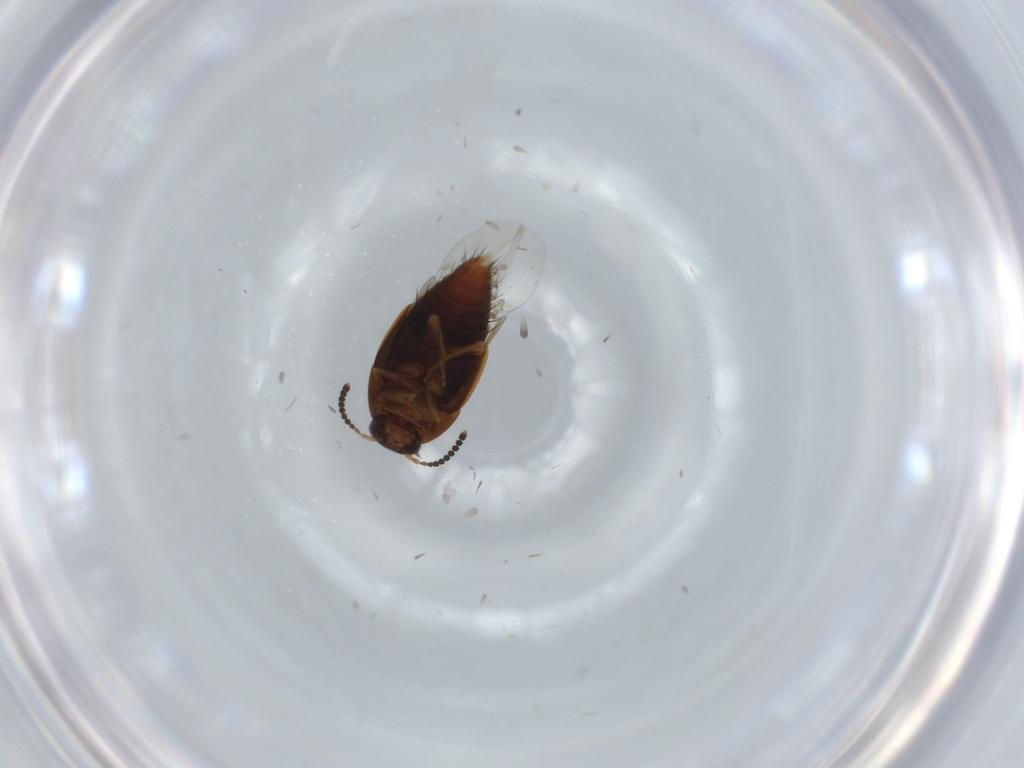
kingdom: Animalia
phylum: Arthropoda
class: Insecta
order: Coleoptera
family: Staphylinidae
